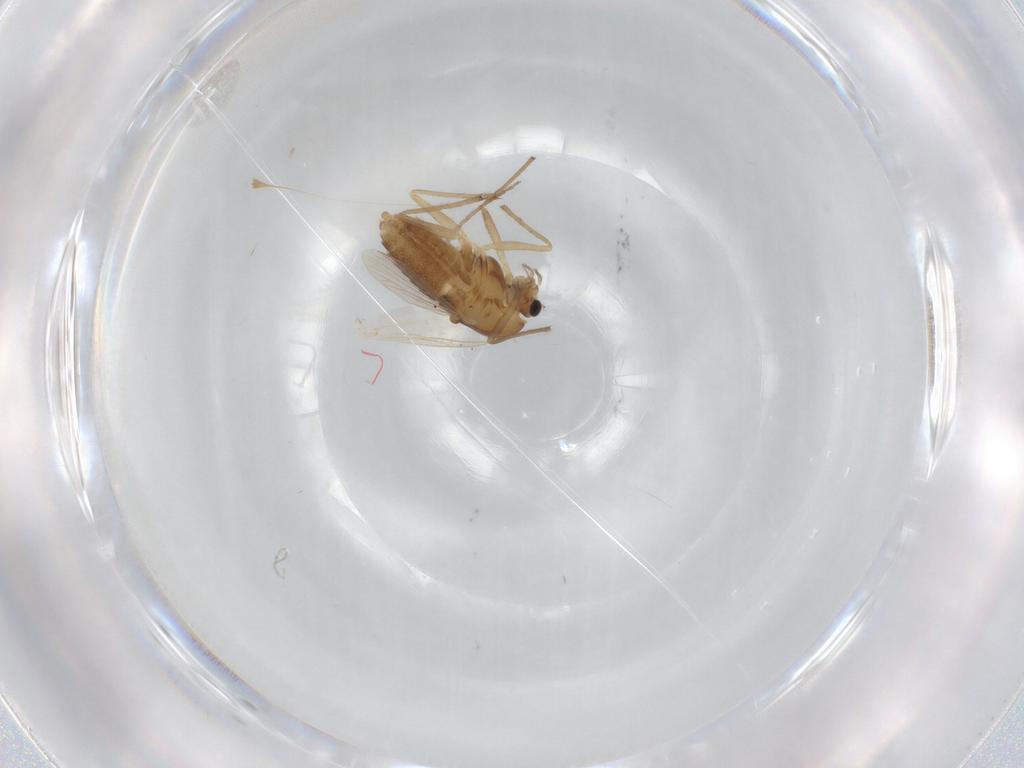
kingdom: Animalia
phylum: Arthropoda
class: Insecta
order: Diptera
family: Chironomidae
